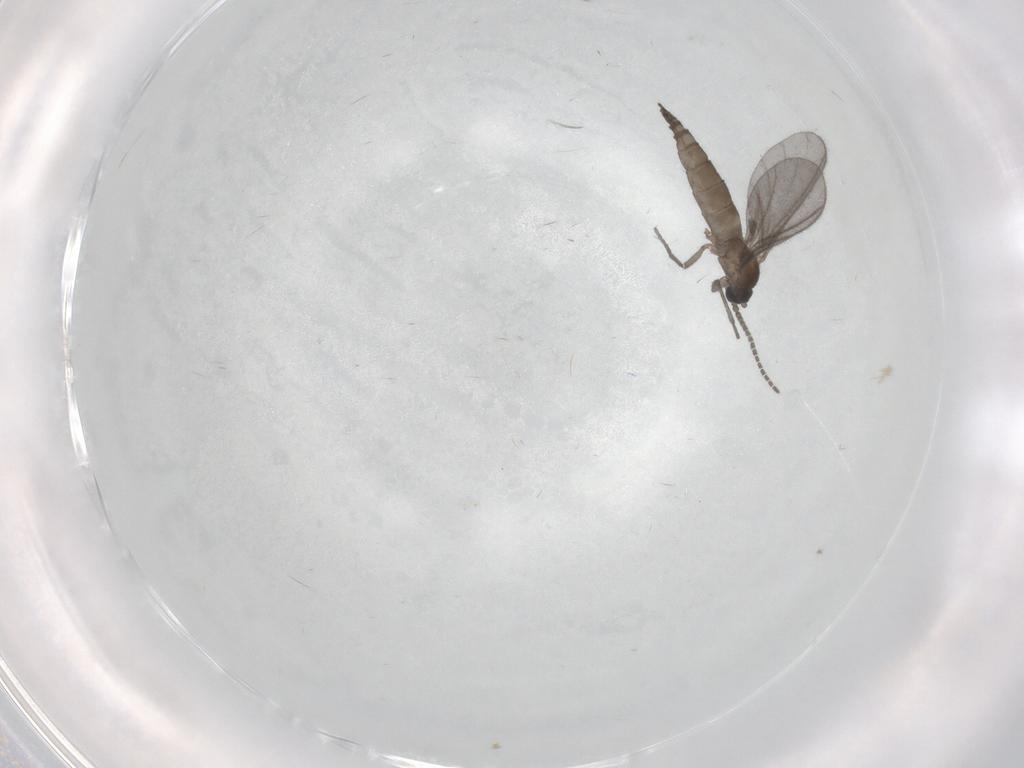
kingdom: Animalia
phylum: Arthropoda
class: Insecta
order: Diptera
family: Sciaridae
